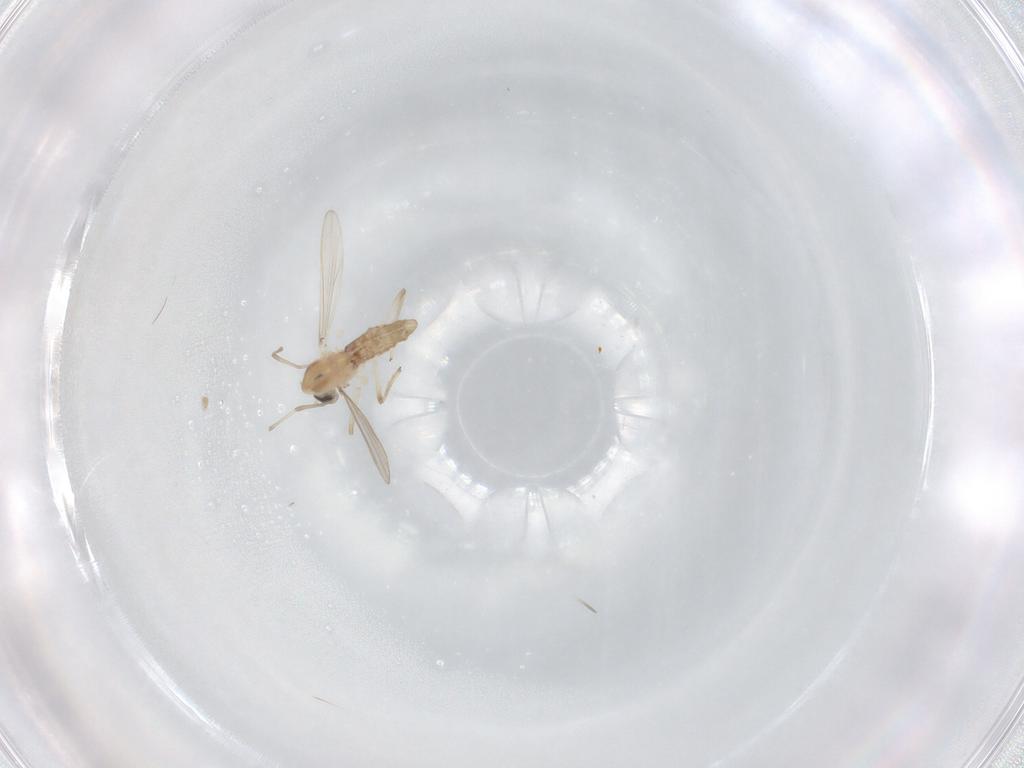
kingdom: Animalia
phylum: Arthropoda
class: Insecta
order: Diptera
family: Chironomidae
